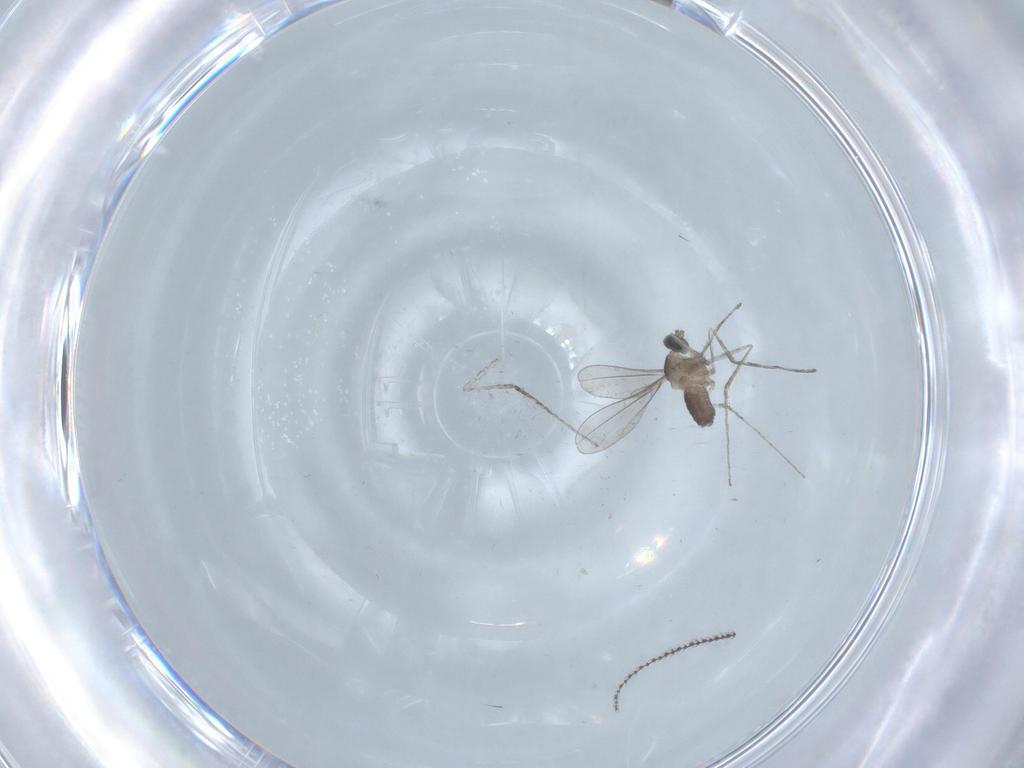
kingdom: Animalia
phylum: Arthropoda
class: Insecta
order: Diptera
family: Cecidomyiidae
